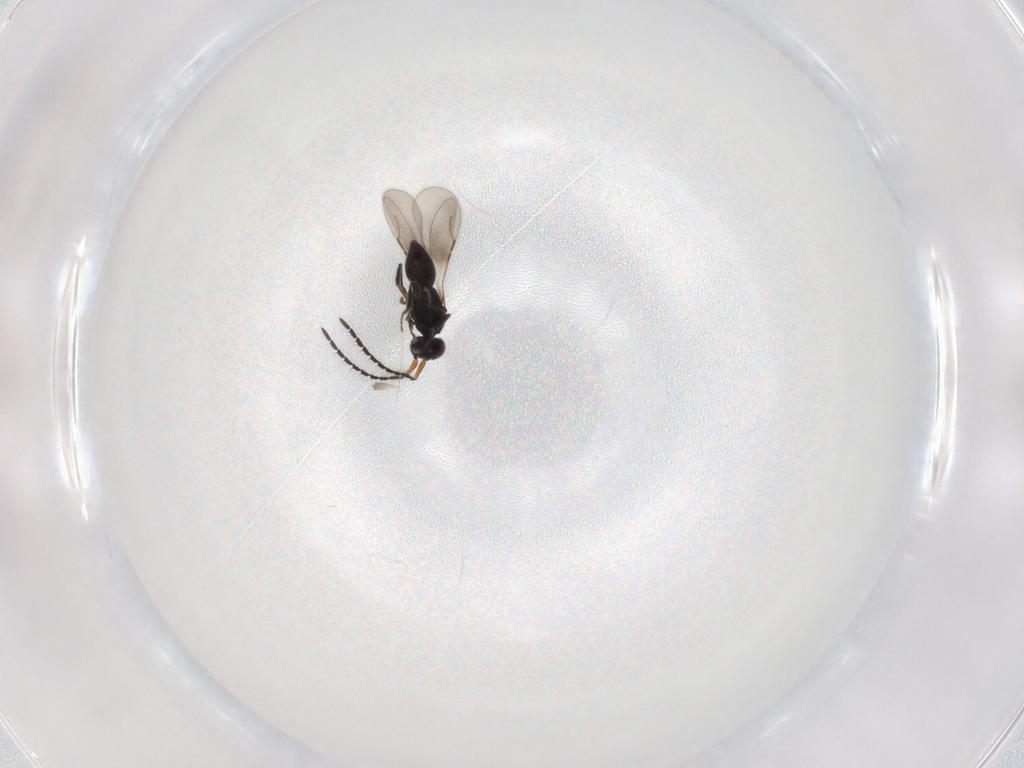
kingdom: Animalia
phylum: Arthropoda
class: Insecta
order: Hymenoptera
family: Ceraphronidae
